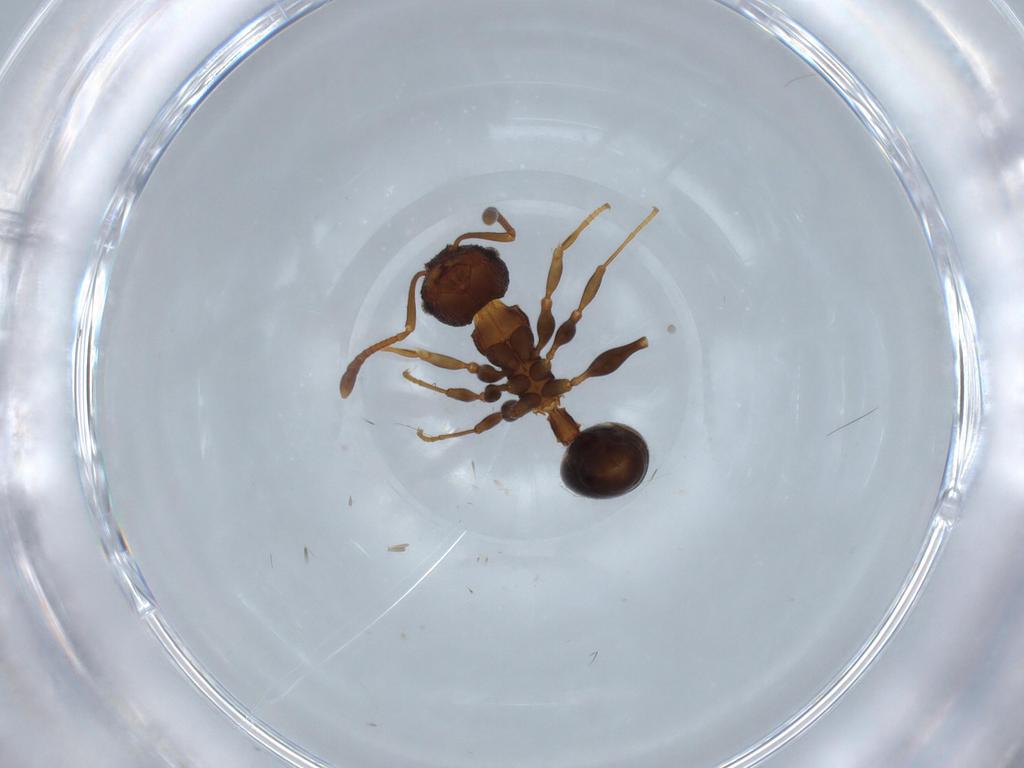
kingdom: Animalia
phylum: Arthropoda
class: Insecta
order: Hymenoptera
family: Formicidae
